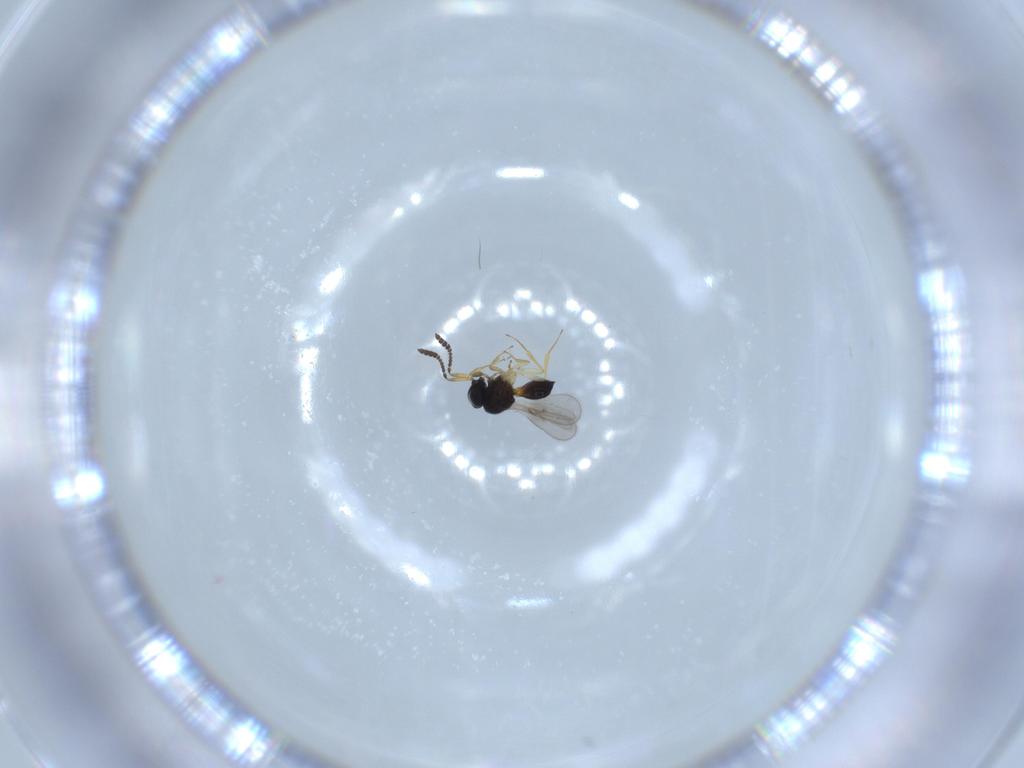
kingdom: Animalia
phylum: Arthropoda
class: Insecta
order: Hymenoptera
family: Scelionidae
